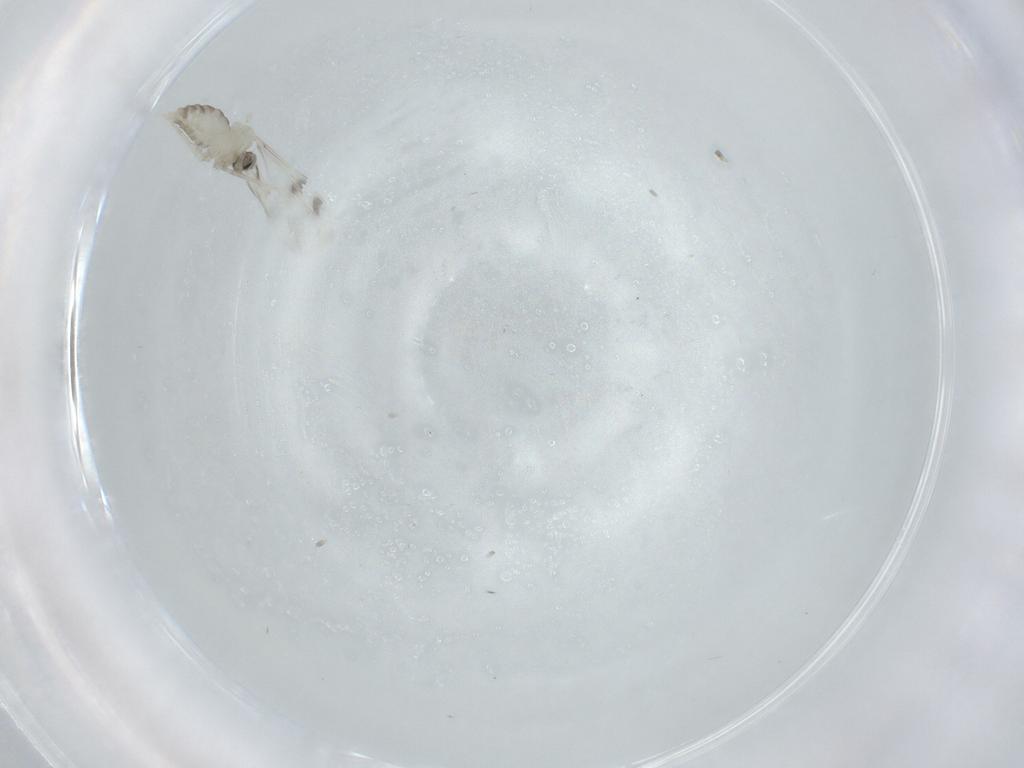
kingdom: Animalia
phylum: Arthropoda
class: Insecta
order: Diptera
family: Cecidomyiidae
